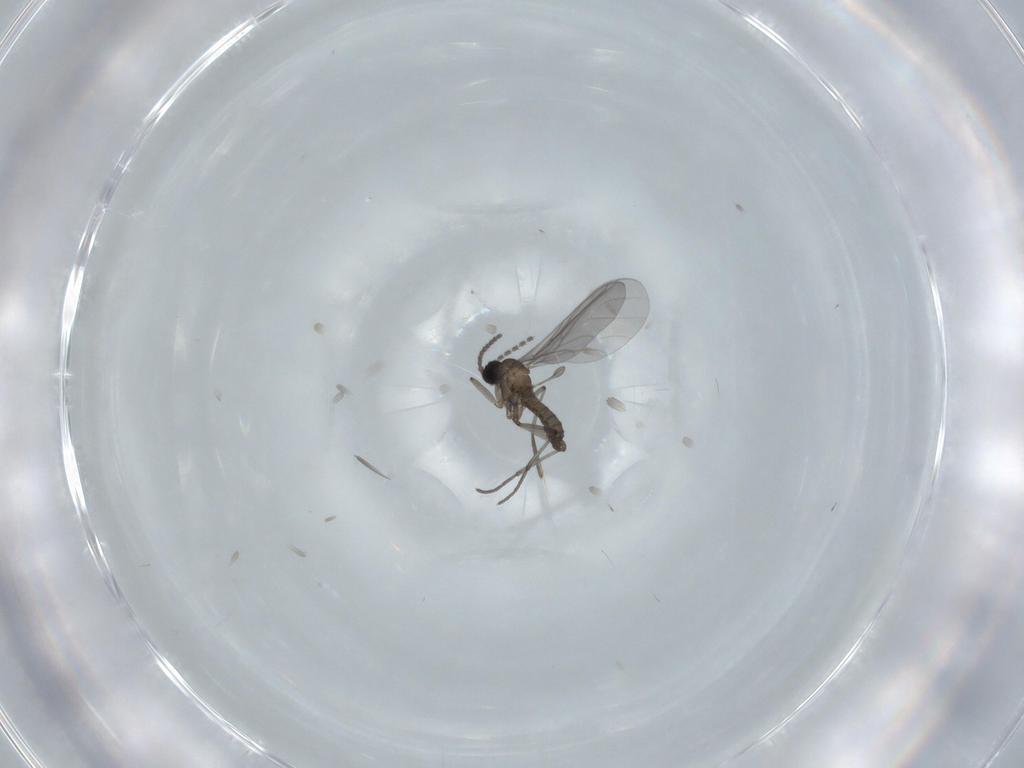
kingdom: Animalia
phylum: Arthropoda
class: Insecta
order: Diptera
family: Sciaridae
